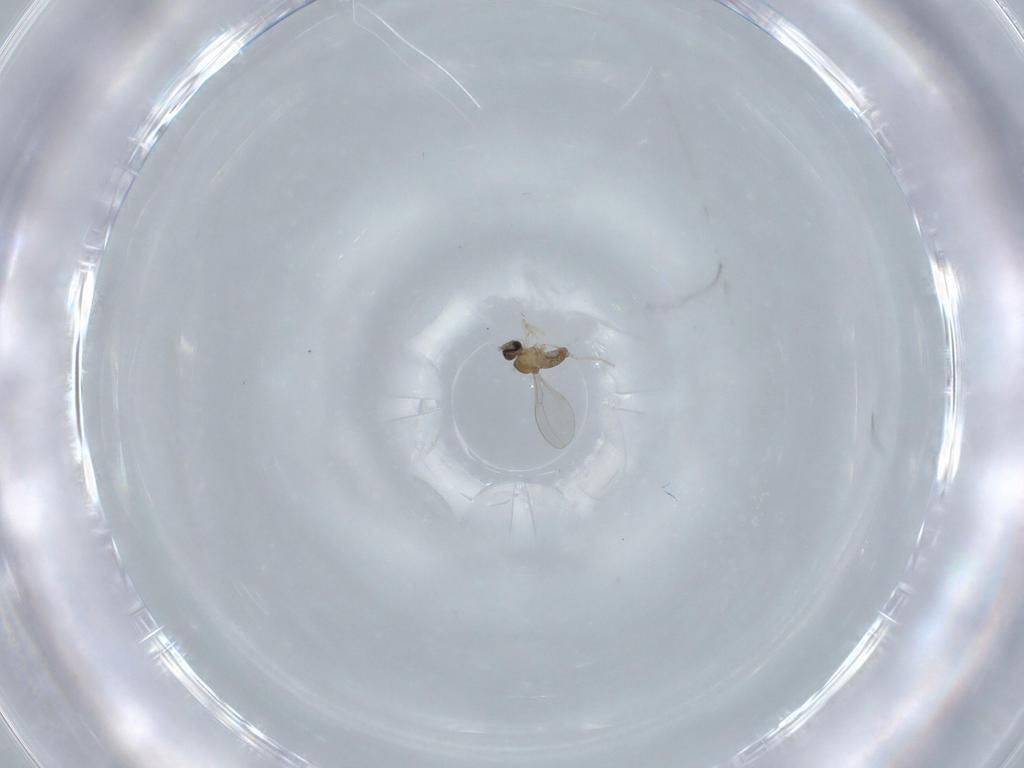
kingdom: Animalia
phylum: Arthropoda
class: Insecta
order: Diptera
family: Cecidomyiidae
